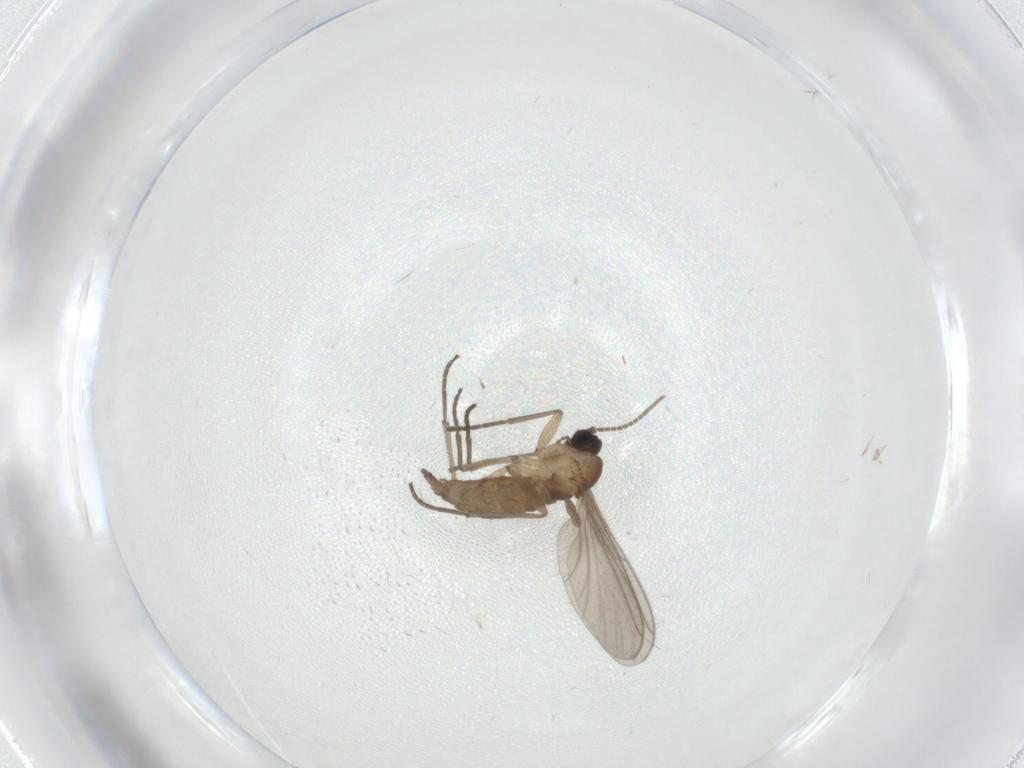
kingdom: Animalia
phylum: Arthropoda
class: Insecta
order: Diptera
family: Sciaridae
